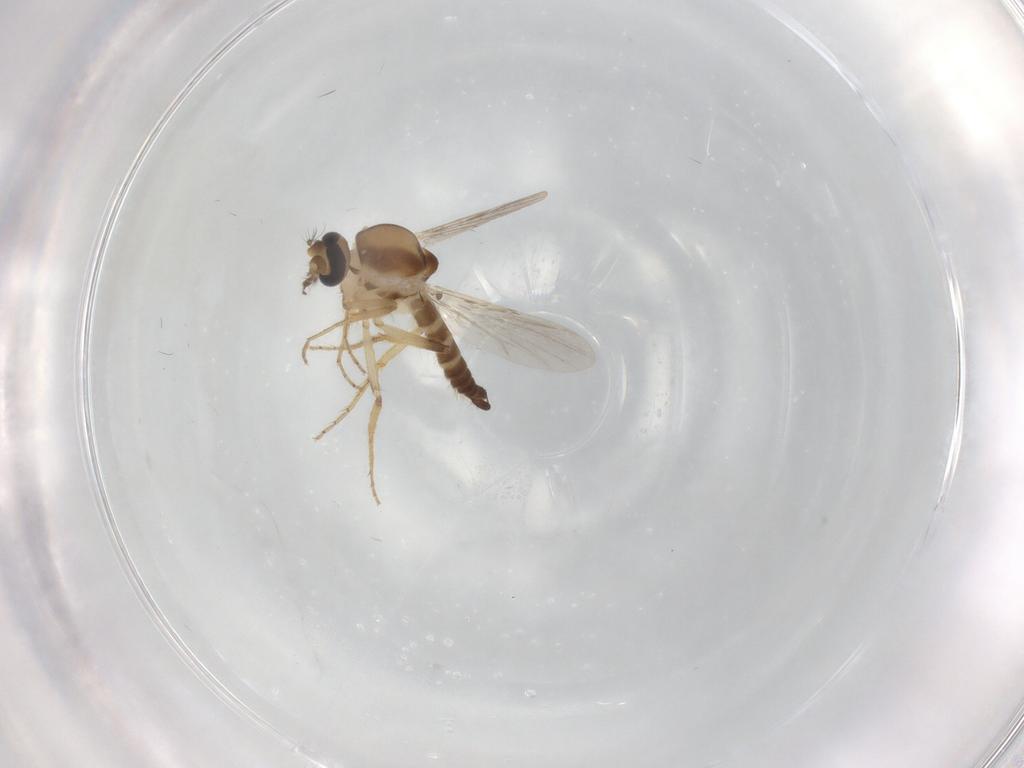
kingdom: Animalia
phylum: Arthropoda
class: Insecta
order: Diptera
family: Ceratopogonidae
